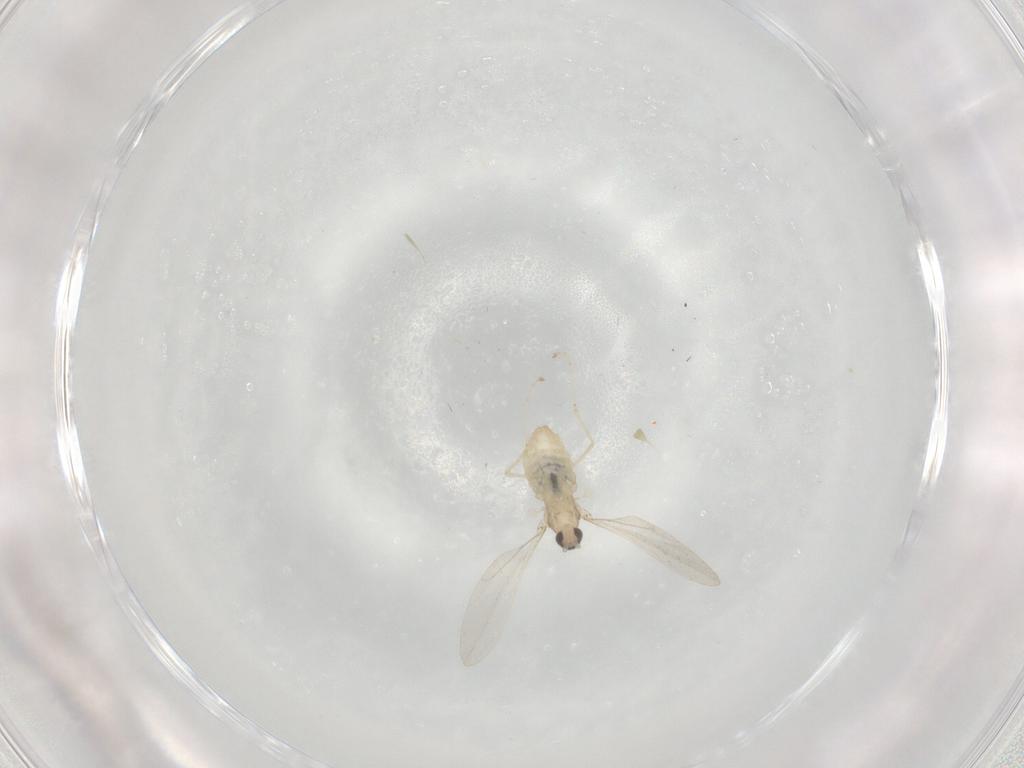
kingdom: Animalia
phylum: Arthropoda
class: Insecta
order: Diptera
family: Cecidomyiidae
